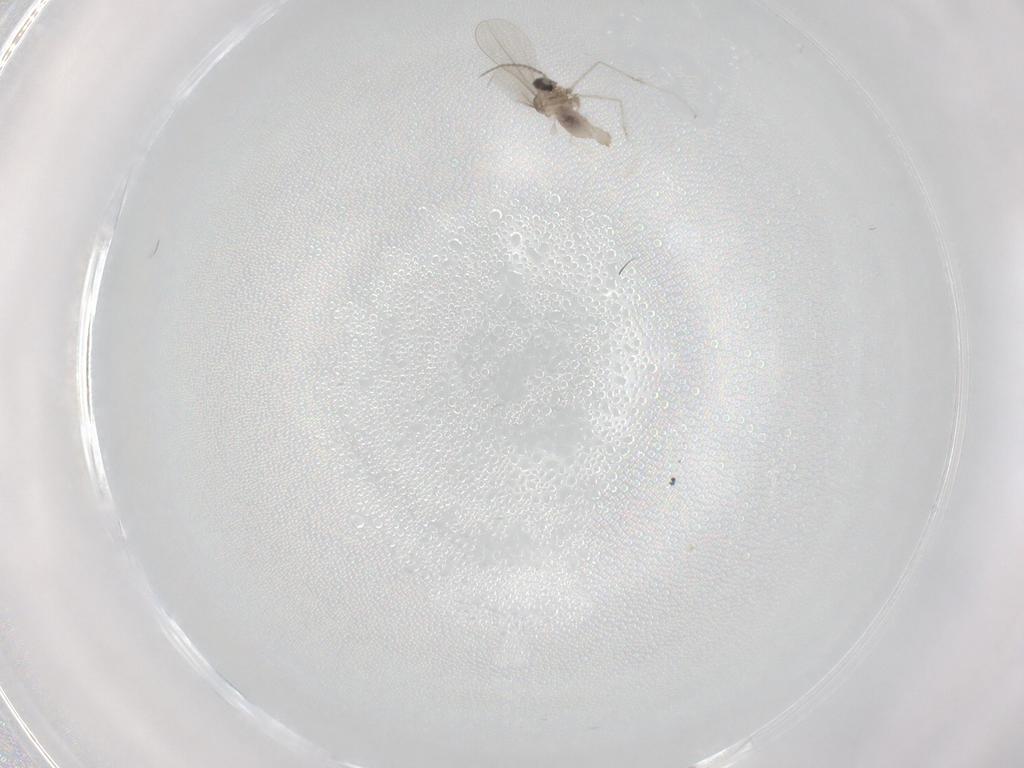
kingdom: Animalia
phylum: Arthropoda
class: Insecta
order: Diptera
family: Cecidomyiidae
